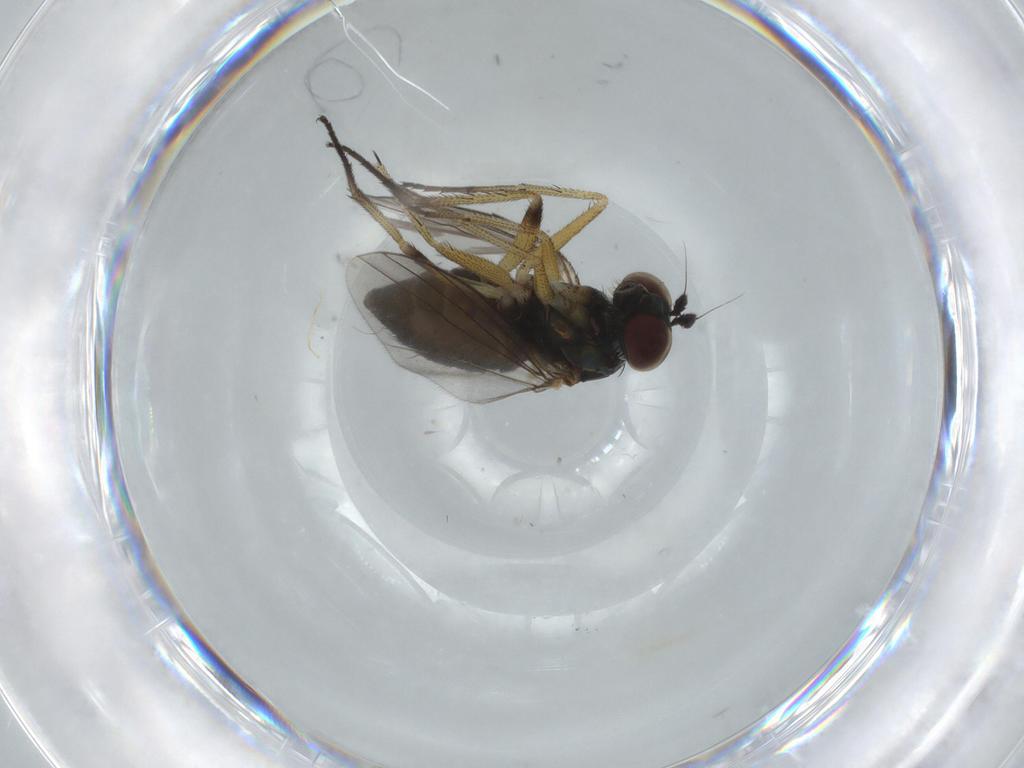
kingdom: Animalia
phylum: Arthropoda
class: Insecta
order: Diptera
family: Dolichopodidae
